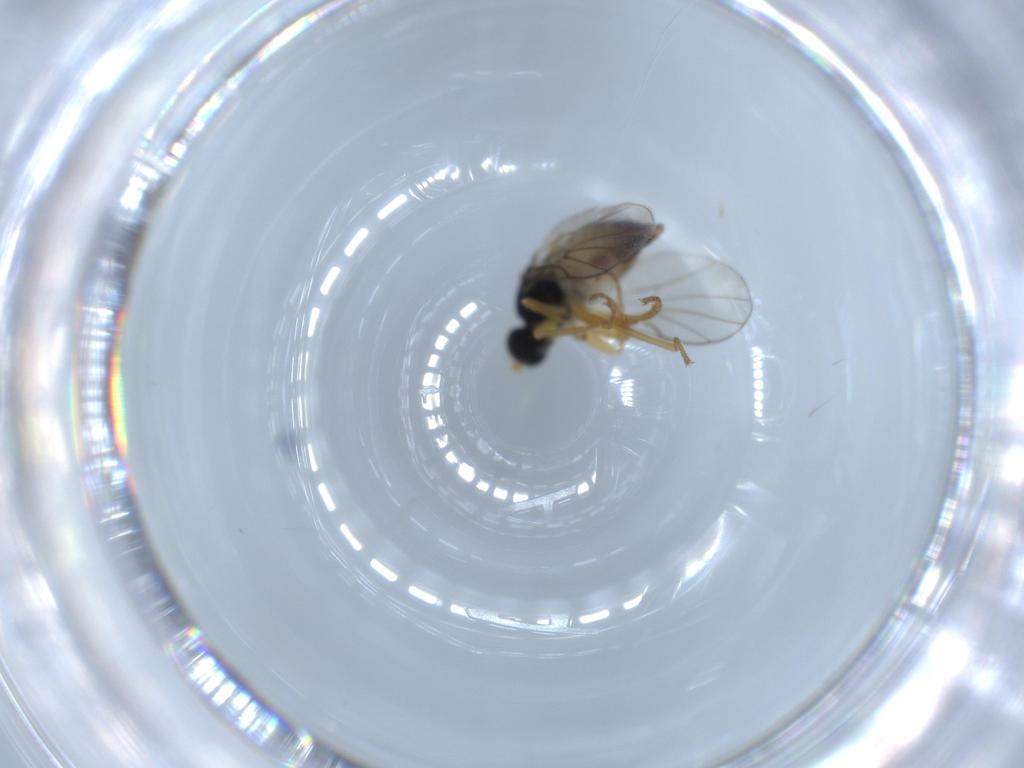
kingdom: Animalia
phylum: Arthropoda
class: Insecta
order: Diptera
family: Hybotidae
